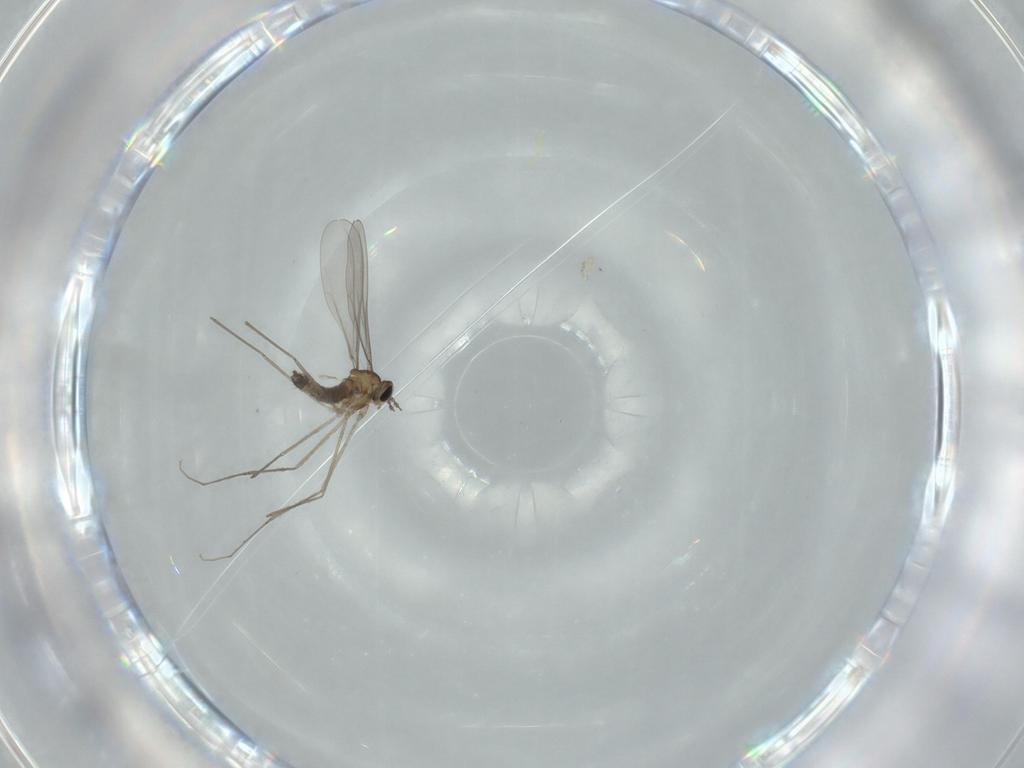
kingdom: Animalia
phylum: Arthropoda
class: Insecta
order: Diptera
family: Cecidomyiidae
